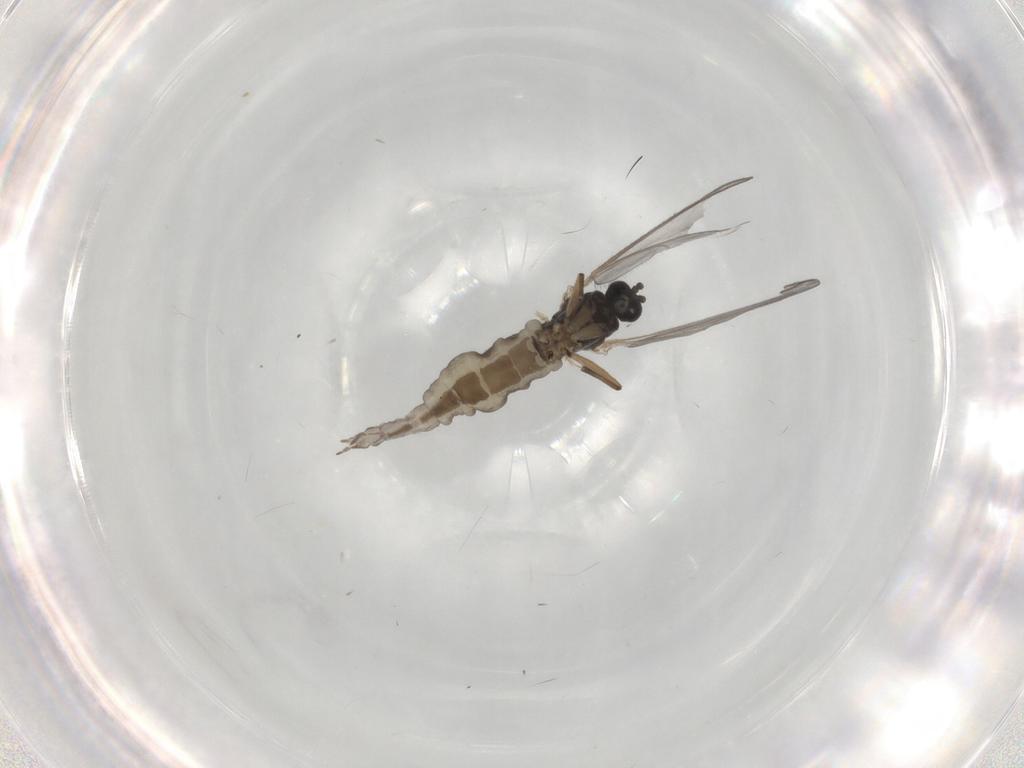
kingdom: Animalia
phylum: Arthropoda
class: Insecta
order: Diptera
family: Sciaridae
